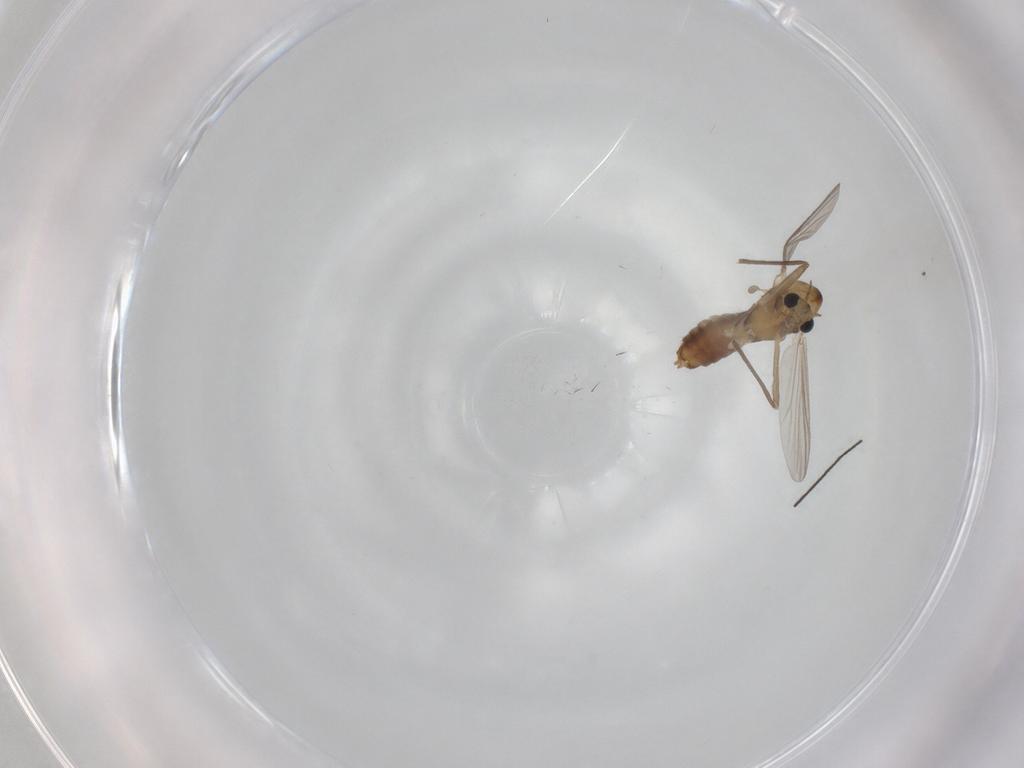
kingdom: Animalia
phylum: Arthropoda
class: Insecta
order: Diptera
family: Chironomidae
